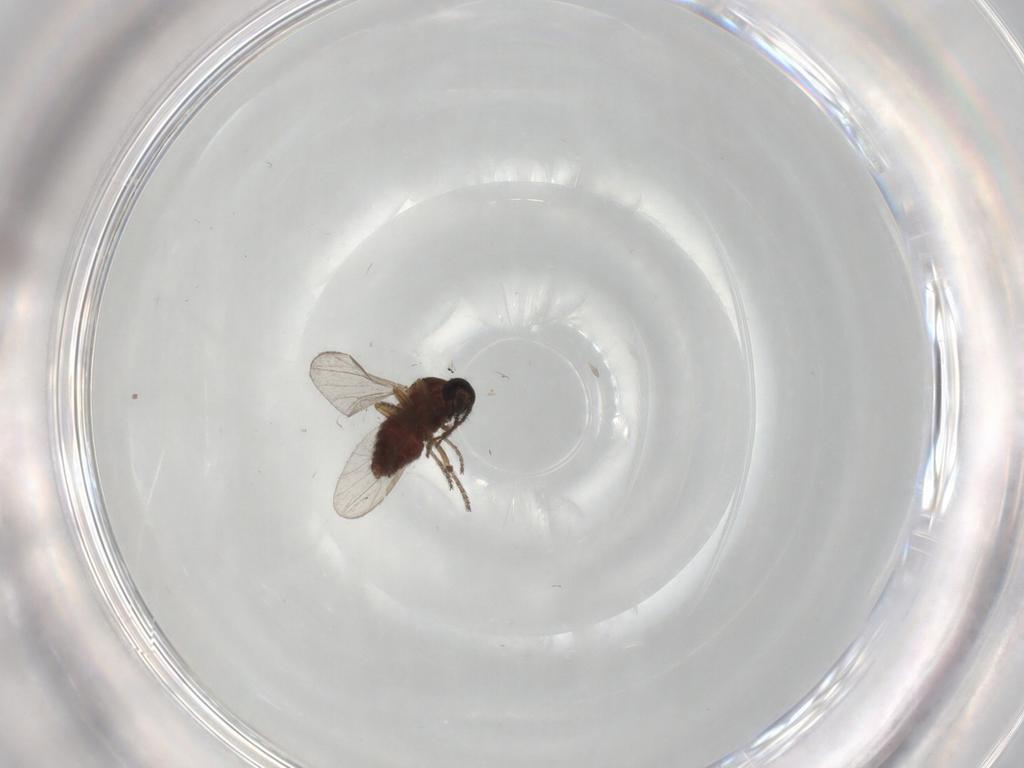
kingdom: Animalia
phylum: Arthropoda
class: Insecta
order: Diptera
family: Ceratopogonidae
